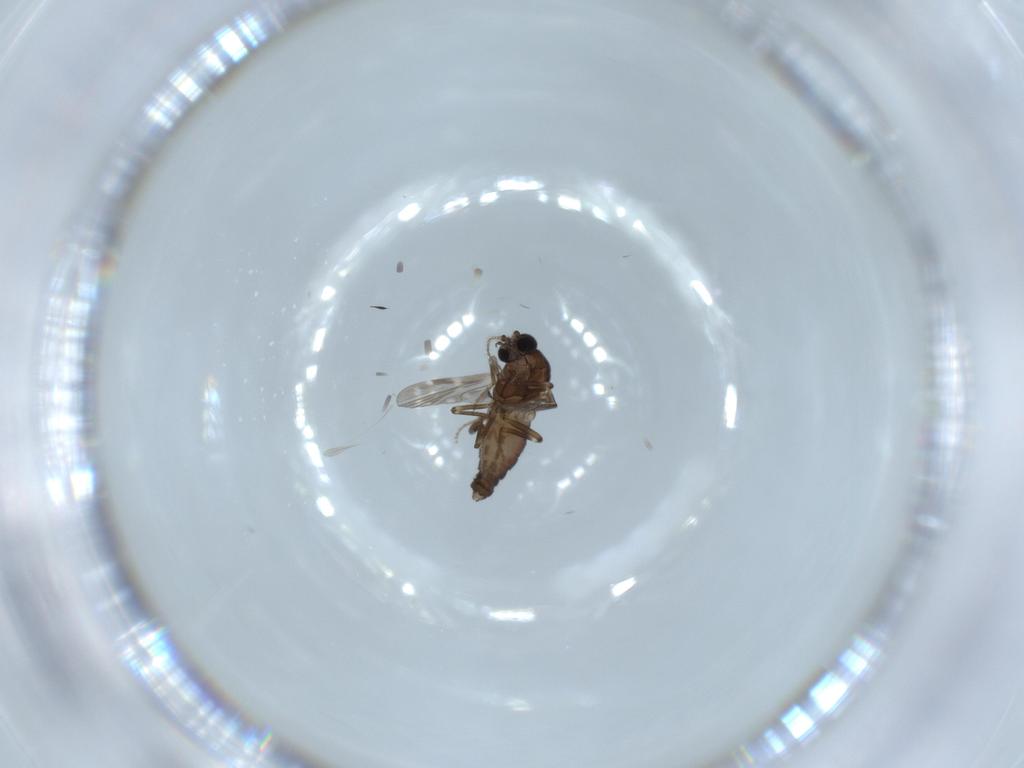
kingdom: Animalia
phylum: Arthropoda
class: Insecta
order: Diptera
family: Ceratopogonidae
